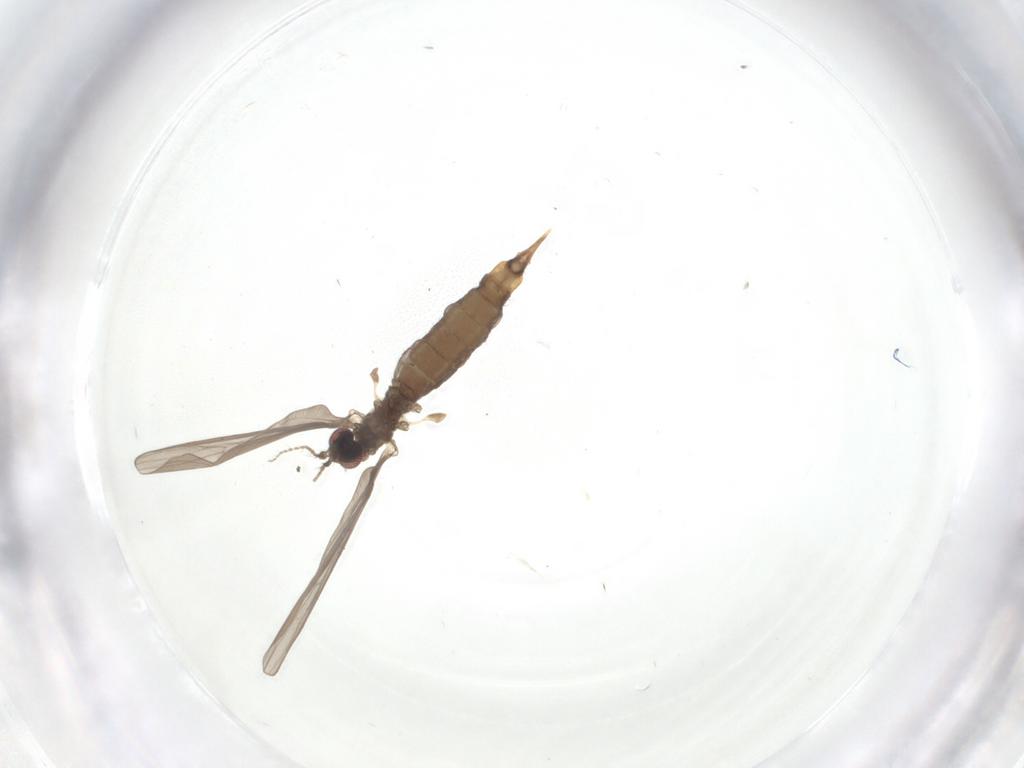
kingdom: Animalia
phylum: Arthropoda
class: Insecta
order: Diptera
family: Limoniidae
